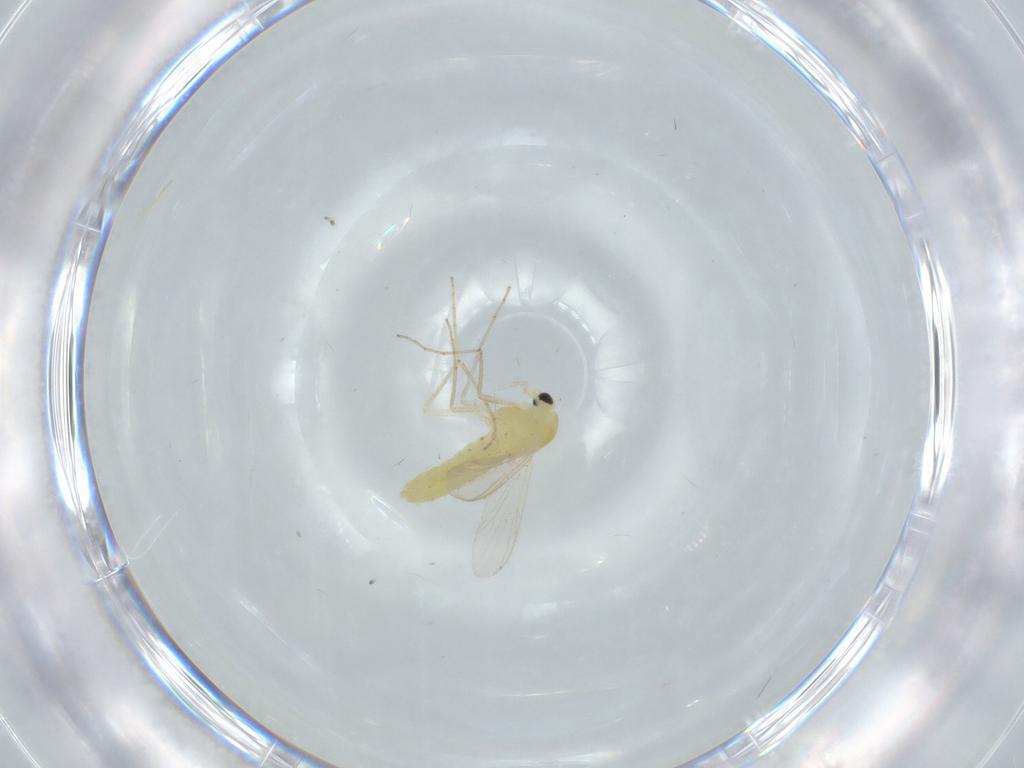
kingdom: Animalia
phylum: Arthropoda
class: Insecta
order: Diptera
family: Chironomidae
